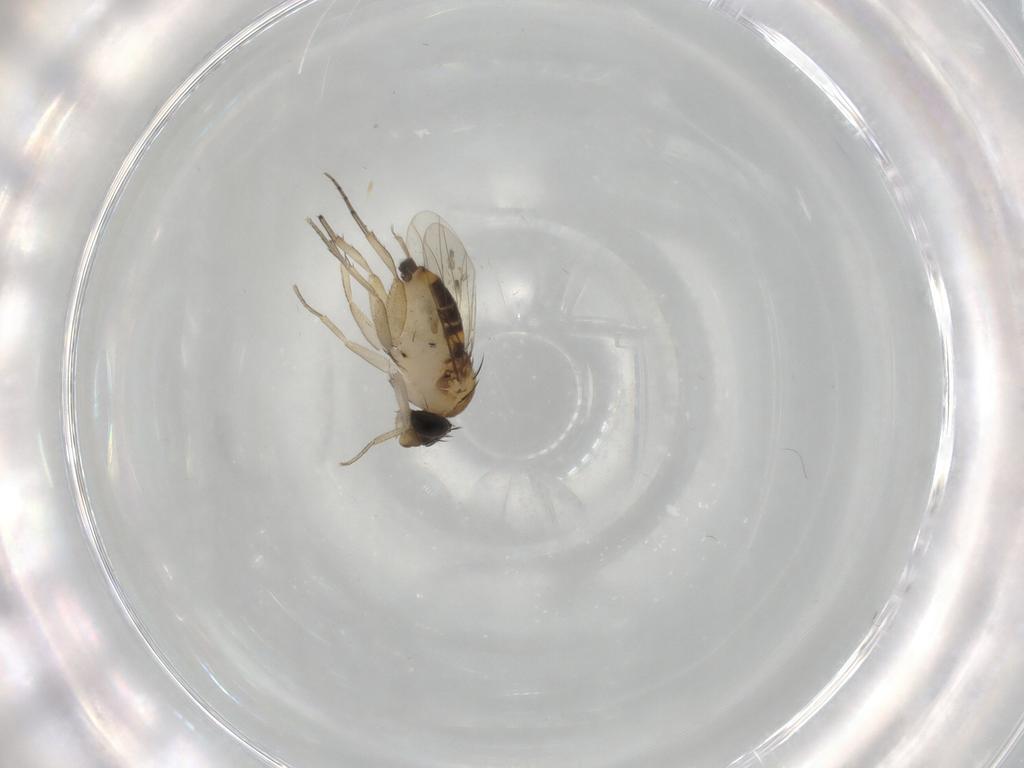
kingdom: Animalia
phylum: Arthropoda
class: Insecta
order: Diptera
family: Phoridae
